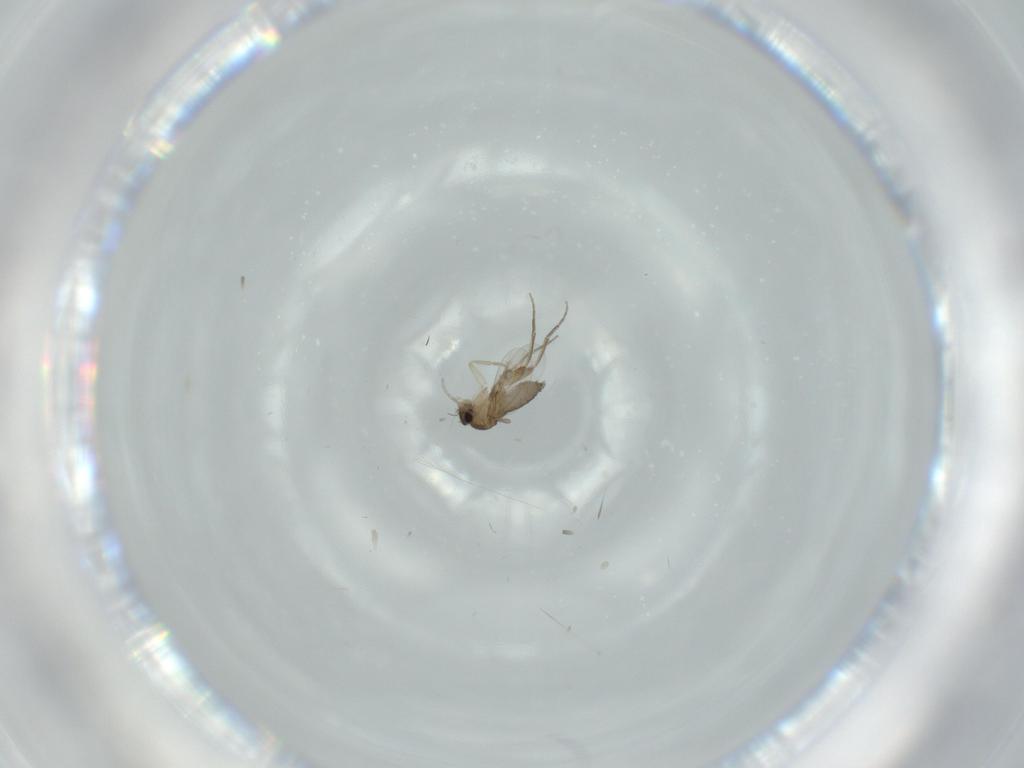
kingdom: Animalia
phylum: Arthropoda
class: Insecta
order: Diptera
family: Phoridae
